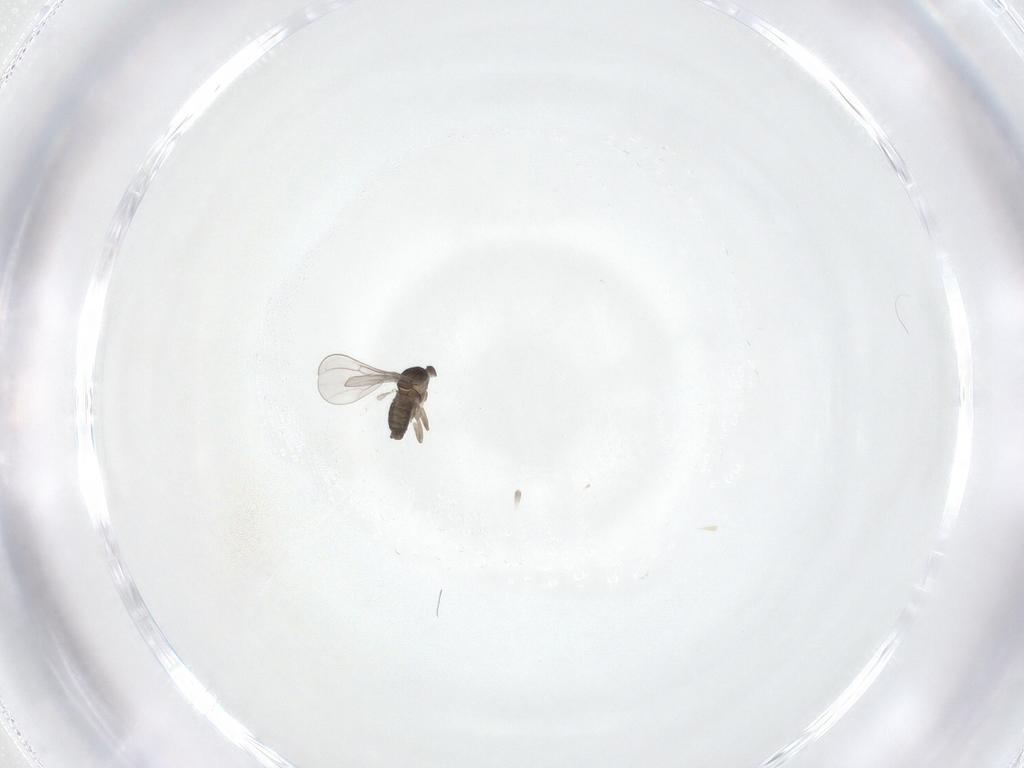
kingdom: Animalia
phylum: Arthropoda
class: Insecta
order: Diptera
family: Cecidomyiidae
